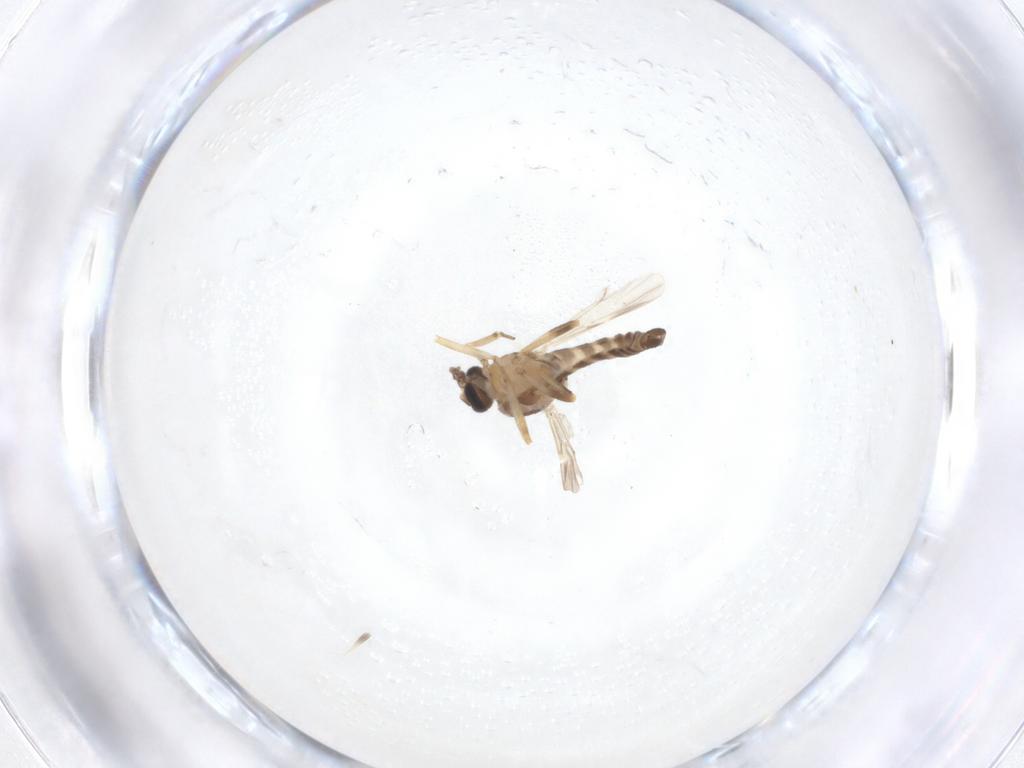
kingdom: Animalia
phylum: Arthropoda
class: Insecta
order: Diptera
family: Ceratopogonidae
